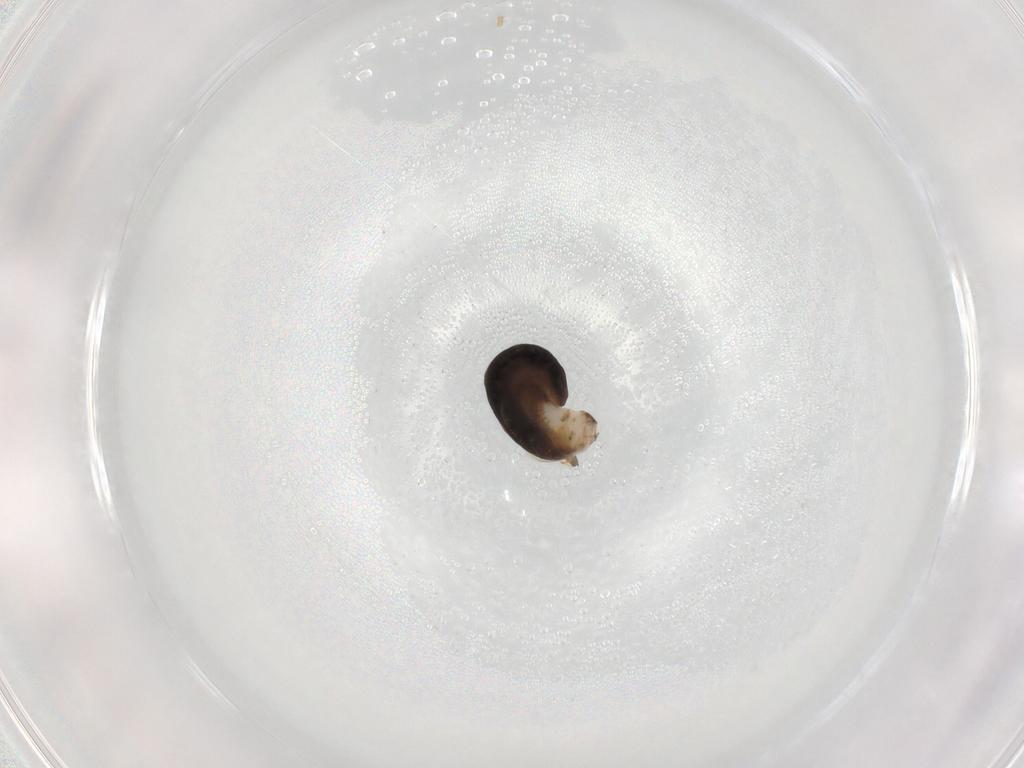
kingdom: Animalia
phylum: Arthropoda
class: Insecta
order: Hymenoptera
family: Dryinidae
